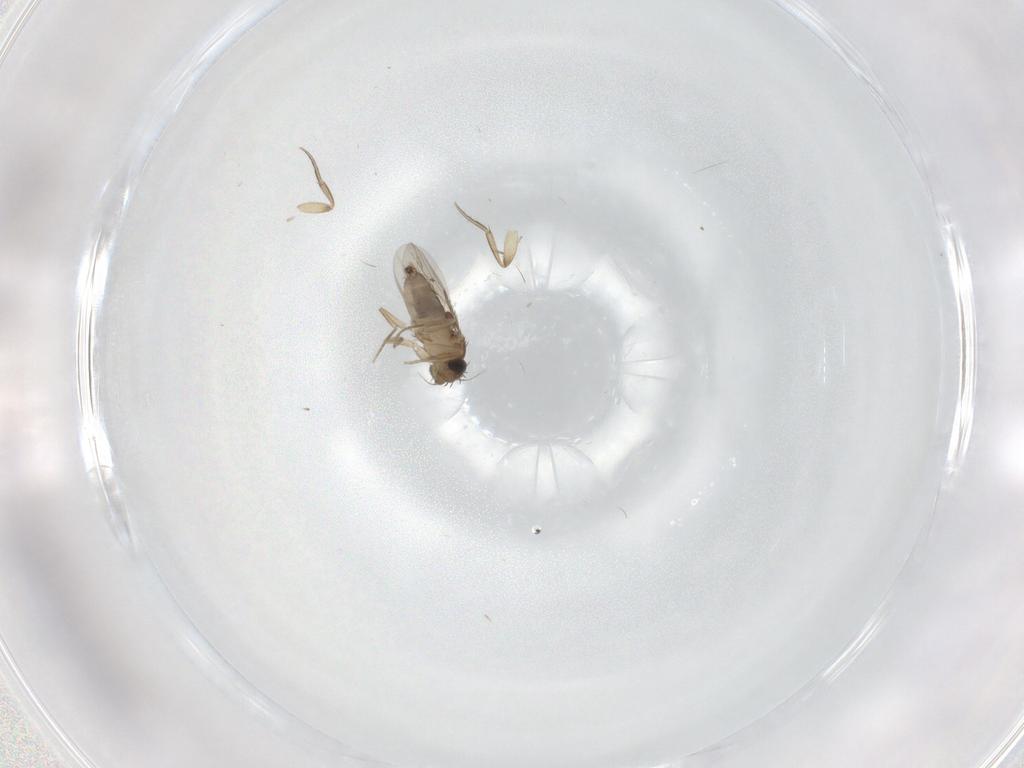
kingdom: Animalia
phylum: Arthropoda
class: Insecta
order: Diptera
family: Phoridae
